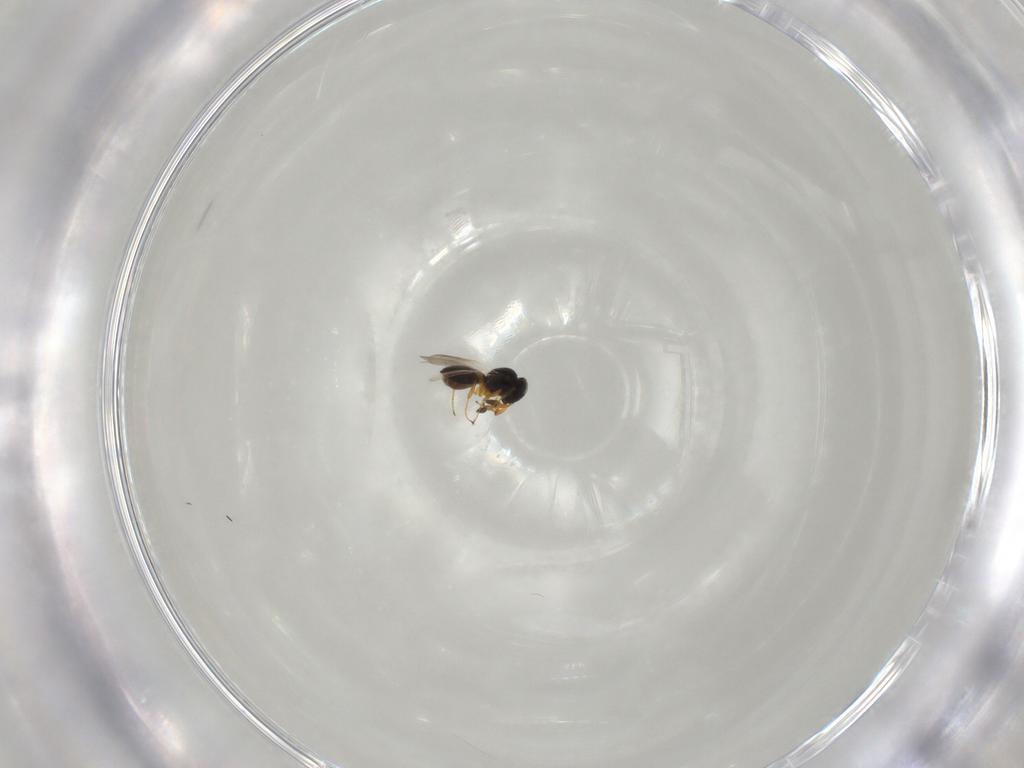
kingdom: Animalia
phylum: Arthropoda
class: Insecta
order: Hymenoptera
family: Platygastridae
